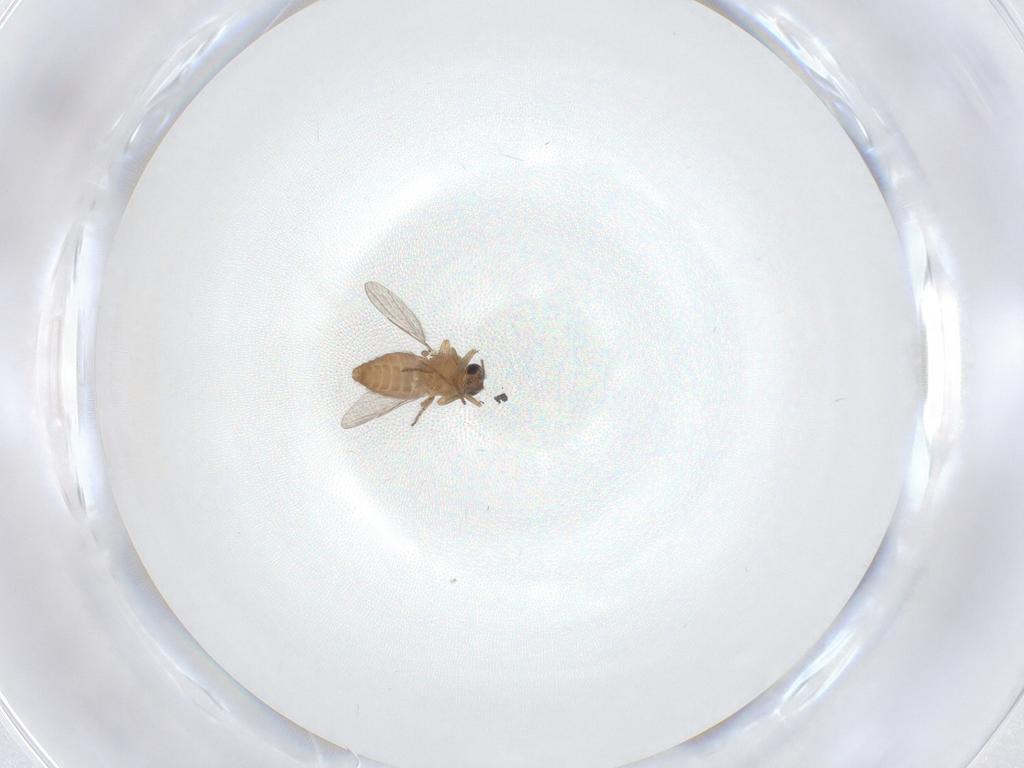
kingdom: Animalia
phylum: Arthropoda
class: Insecta
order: Diptera
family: Ceratopogonidae
